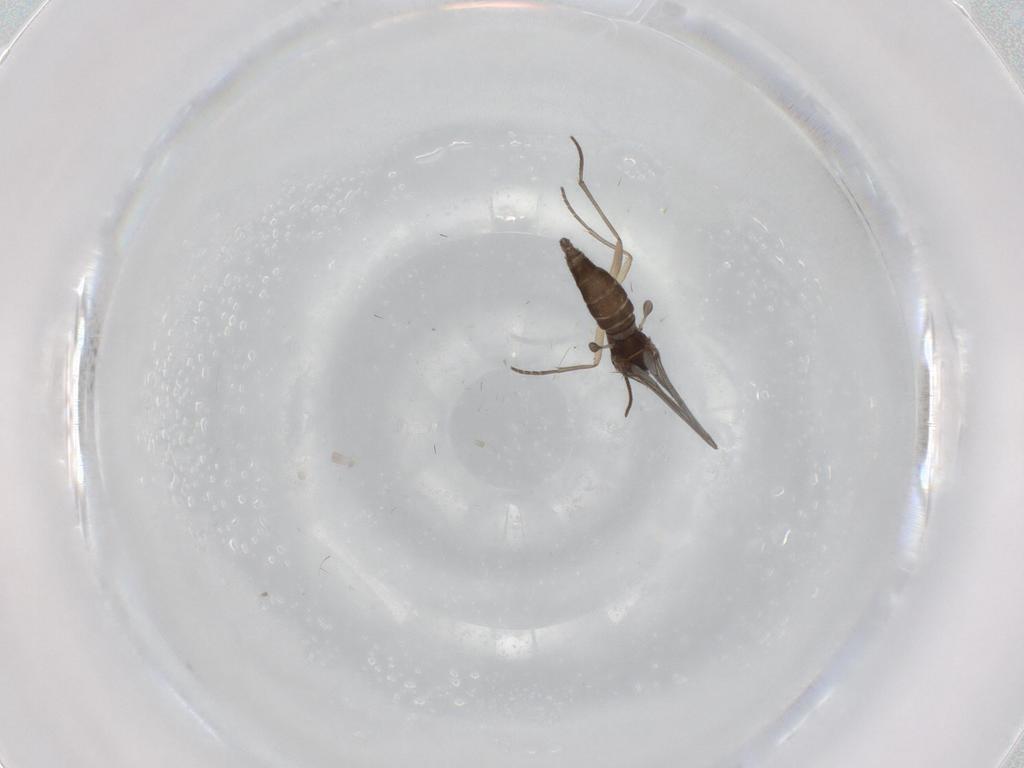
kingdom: Animalia
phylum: Arthropoda
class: Insecta
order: Diptera
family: Sciaridae
